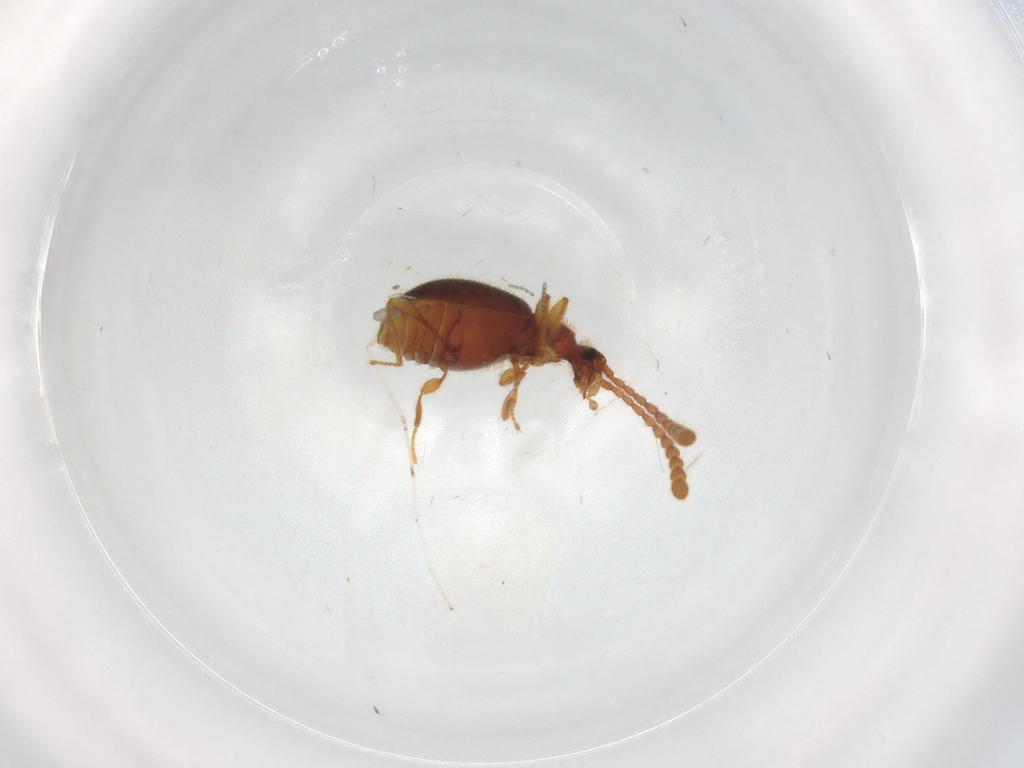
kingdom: Animalia
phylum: Arthropoda
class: Insecta
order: Coleoptera
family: Staphylinidae
